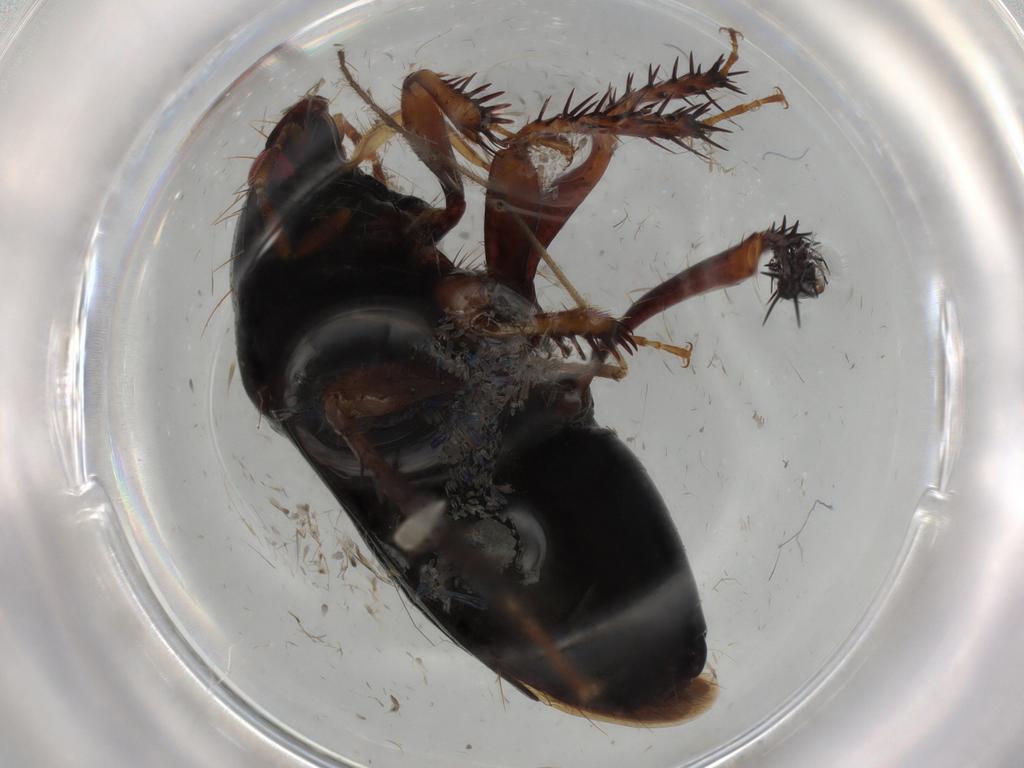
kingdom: Animalia
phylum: Arthropoda
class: Insecta
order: Hemiptera
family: Cydnidae
